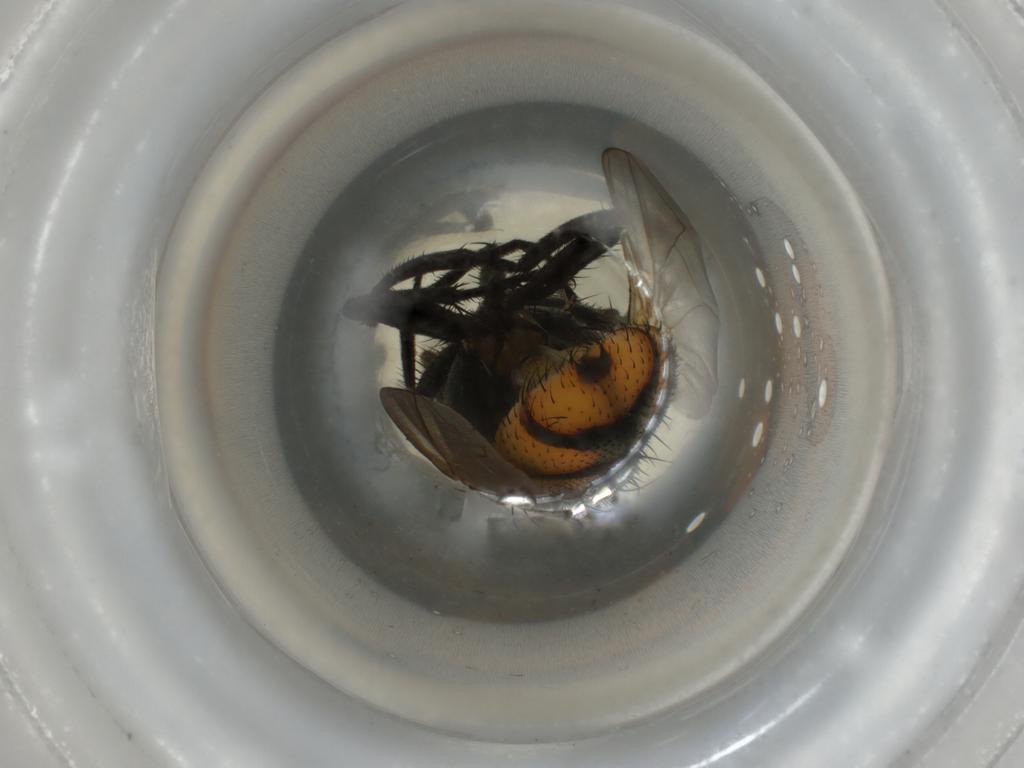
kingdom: Animalia
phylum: Arthropoda
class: Insecta
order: Diptera
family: Muscidae
